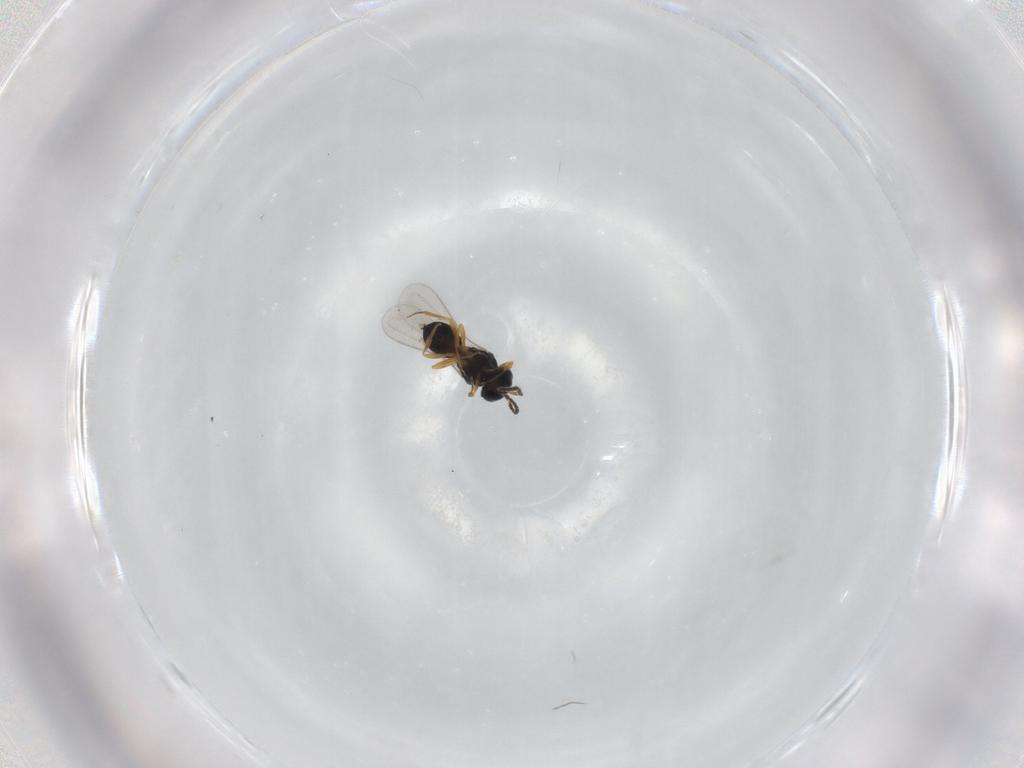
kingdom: Animalia
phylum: Arthropoda
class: Insecta
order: Hymenoptera
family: Scelionidae
